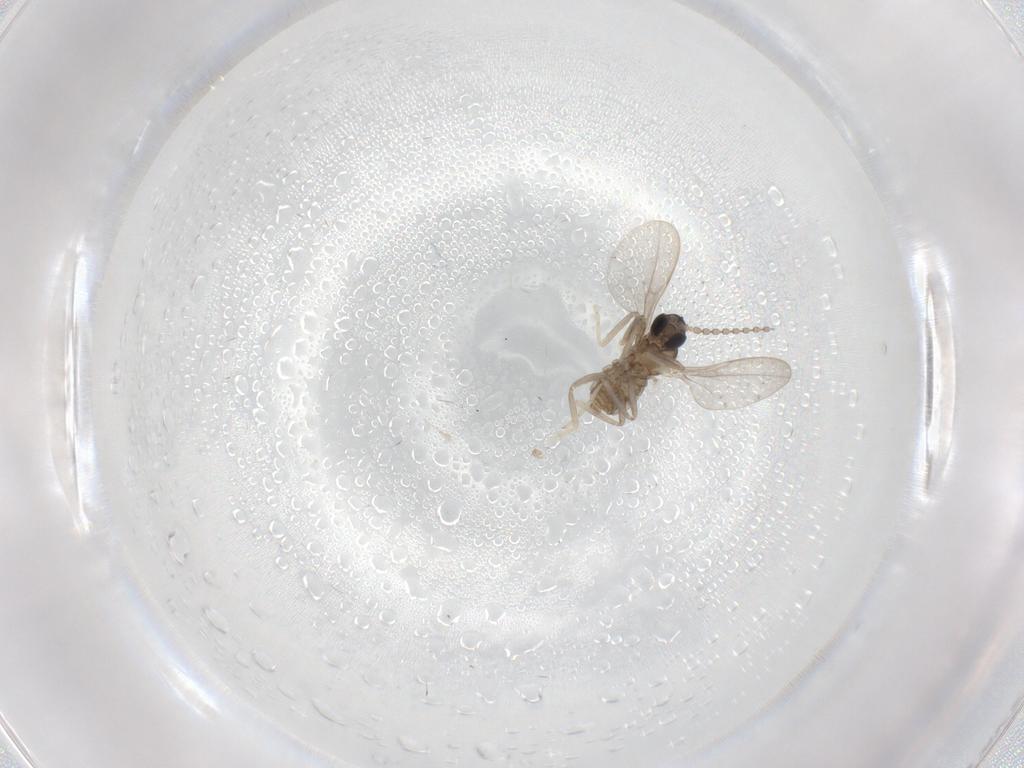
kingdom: Animalia
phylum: Arthropoda
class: Insecta
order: Diptera
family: Cecidomyiidae
